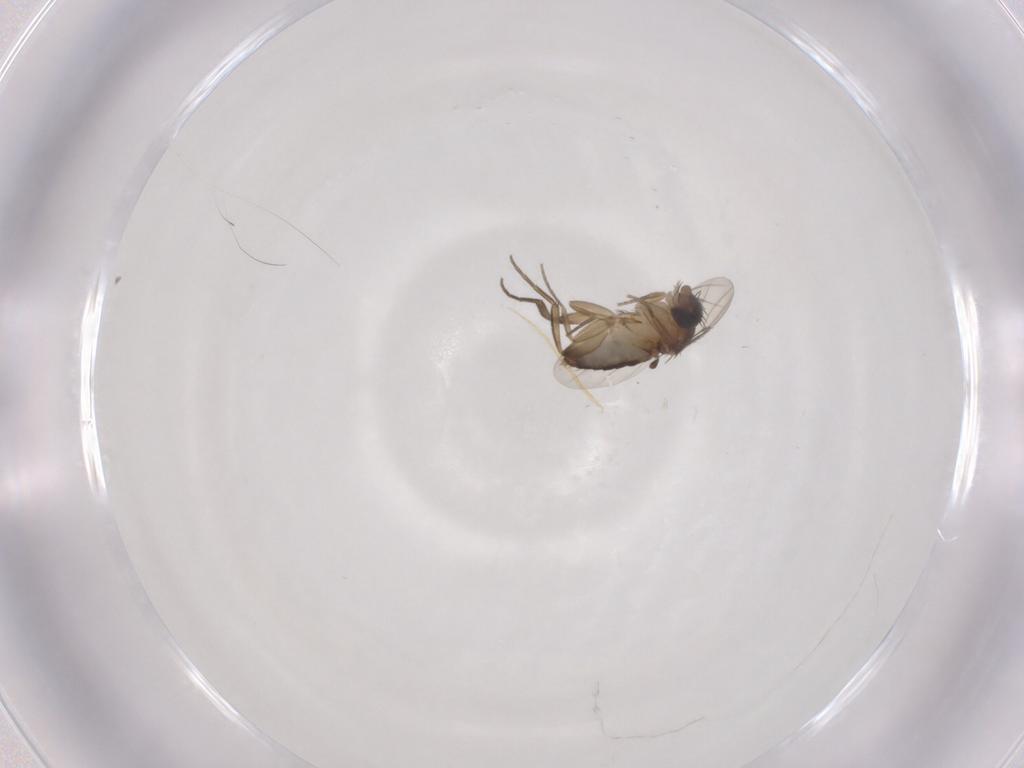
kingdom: Animalia
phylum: Arthropoda
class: Insecta
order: Diptera
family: Phoridae
